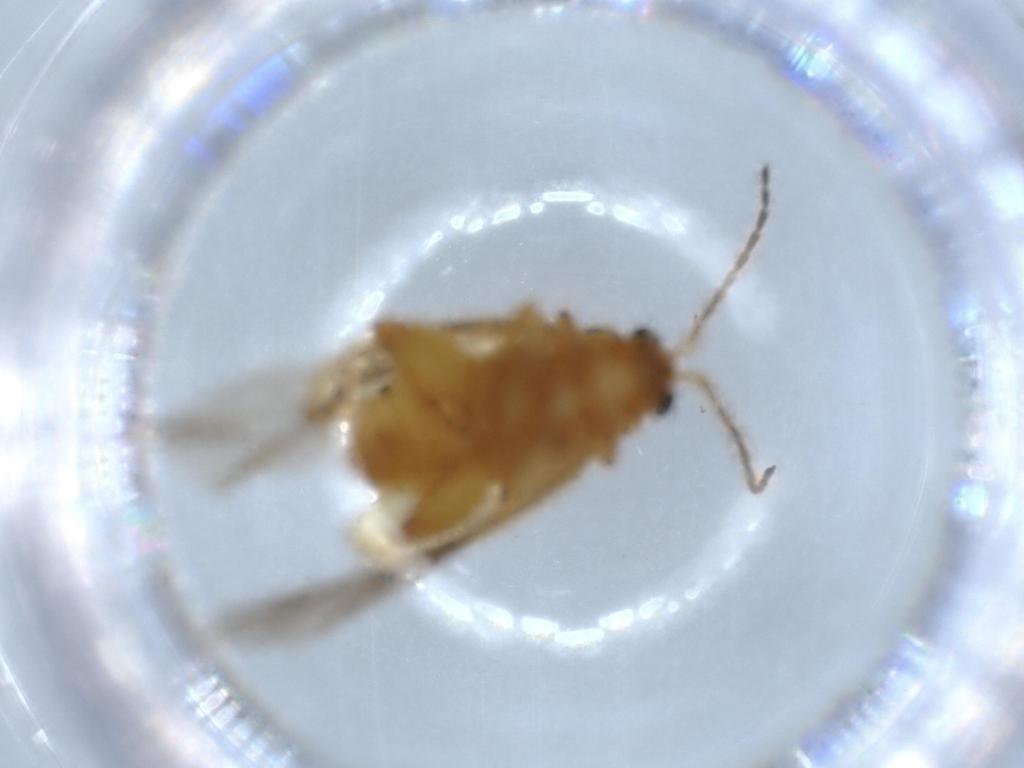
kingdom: Animalia
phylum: Arthropoda
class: Insecta
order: Coleoptera
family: Chrysomelidae
